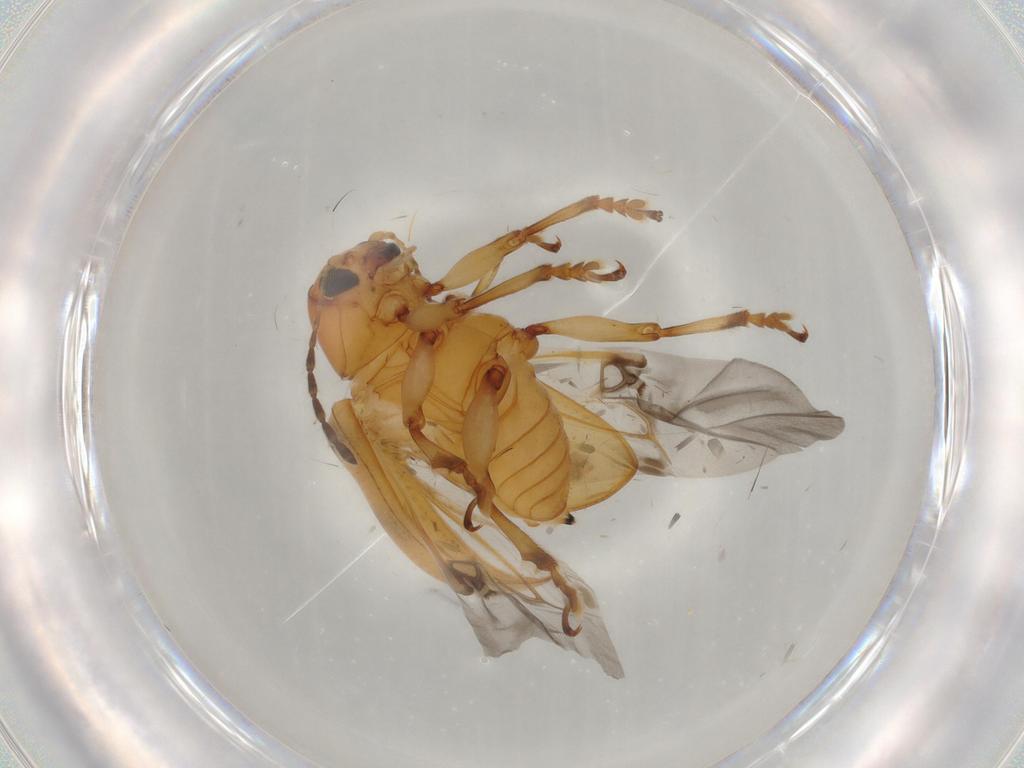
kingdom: Animalia
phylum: Arthropoda
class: Insecta
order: Coleoptera
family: Chrysomelidae
